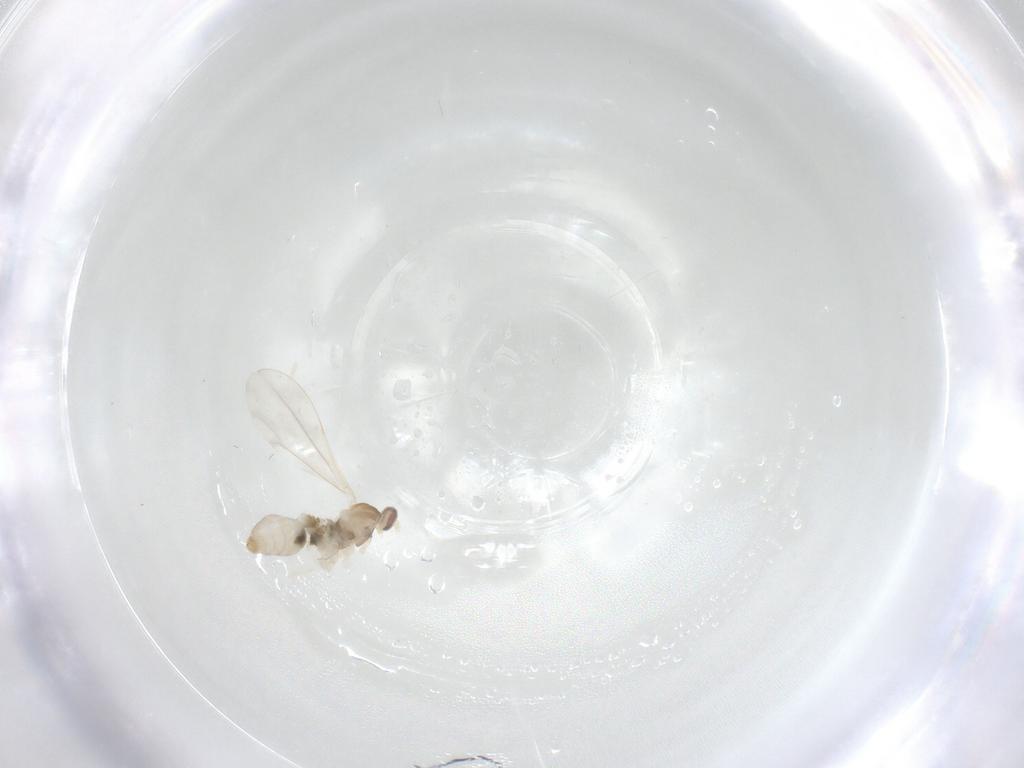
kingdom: Animalia
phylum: Arthropoda
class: Insecta
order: Diptera
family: Cecidomyiidae
